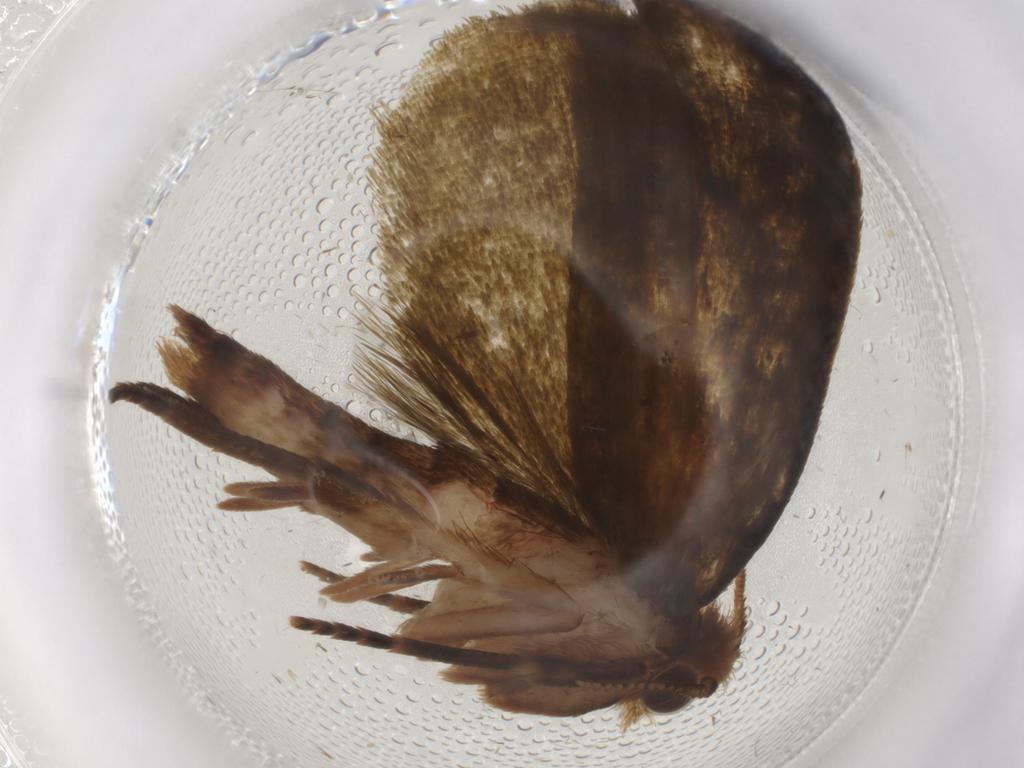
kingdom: Animalia
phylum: Arthropoda
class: Insecta
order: Lepidoptera
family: Geometridae
